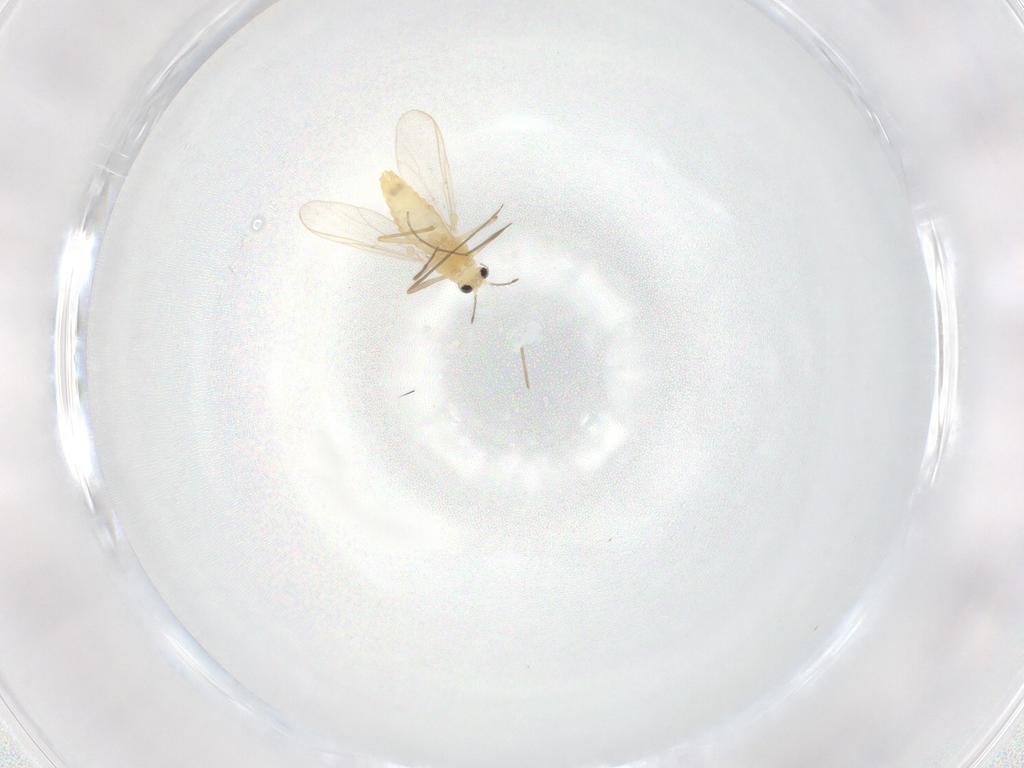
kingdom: Animalia
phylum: Arthropoda
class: Insecta
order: Diptera
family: Chironomidae
